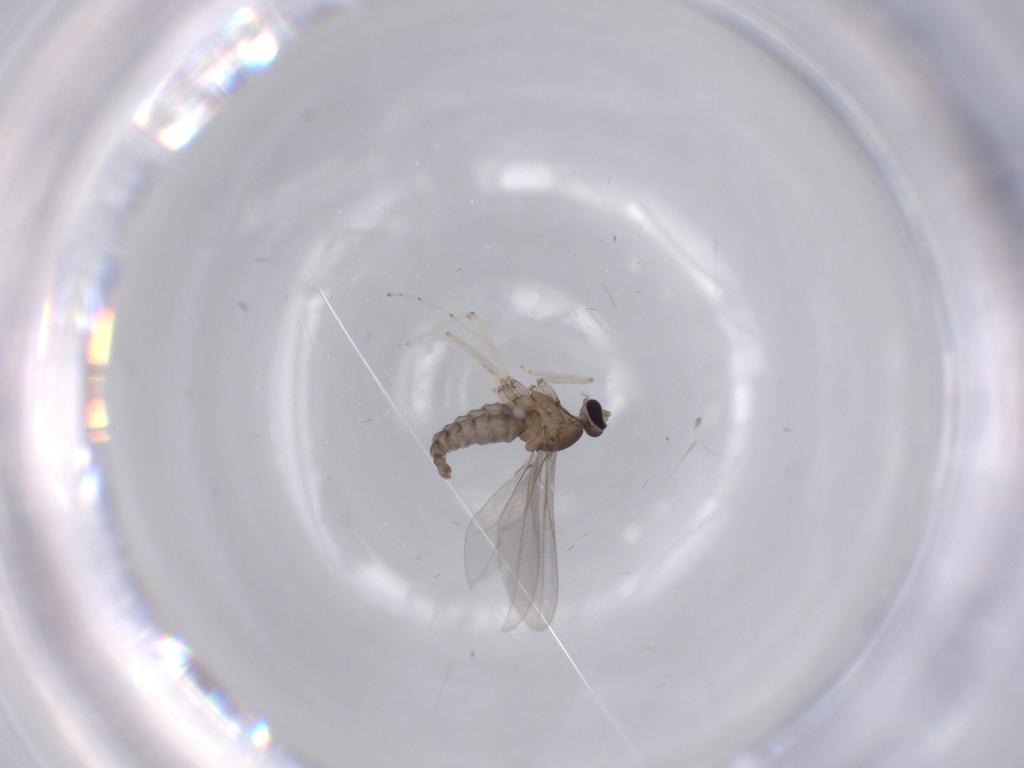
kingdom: Animalia
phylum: Arthropoda
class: Insecta
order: Diptera
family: Cecidomyiidae
